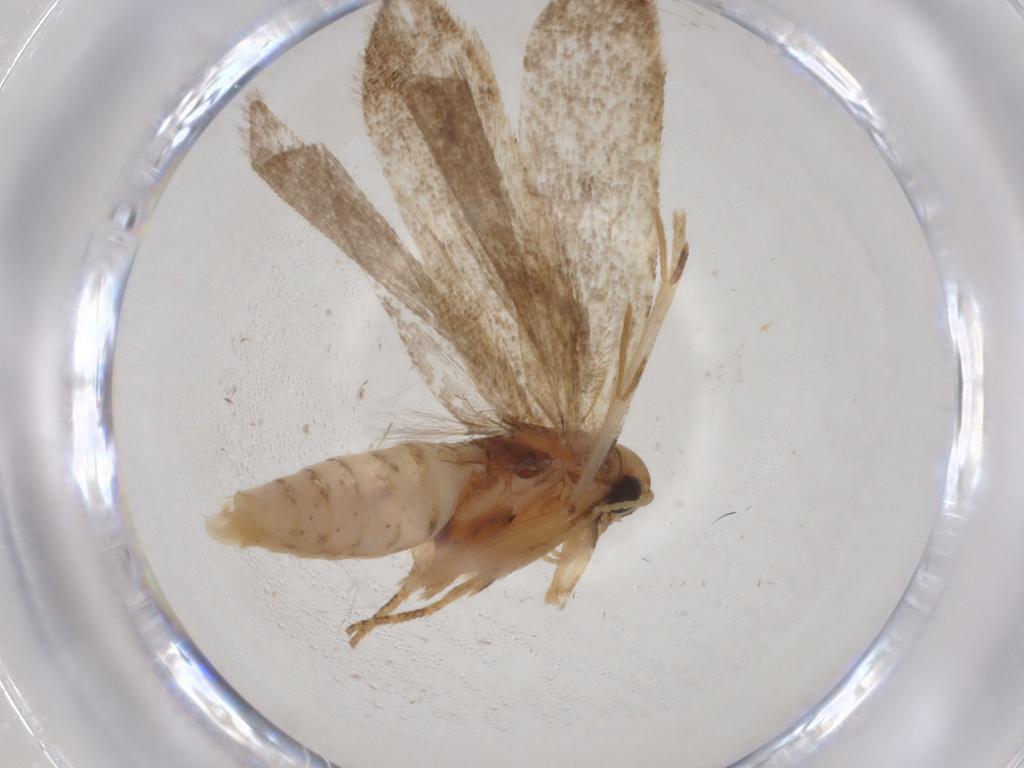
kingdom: Animalia
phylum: Arthropoda
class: Insecta
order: Lepidoptera
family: Gelechiidae
